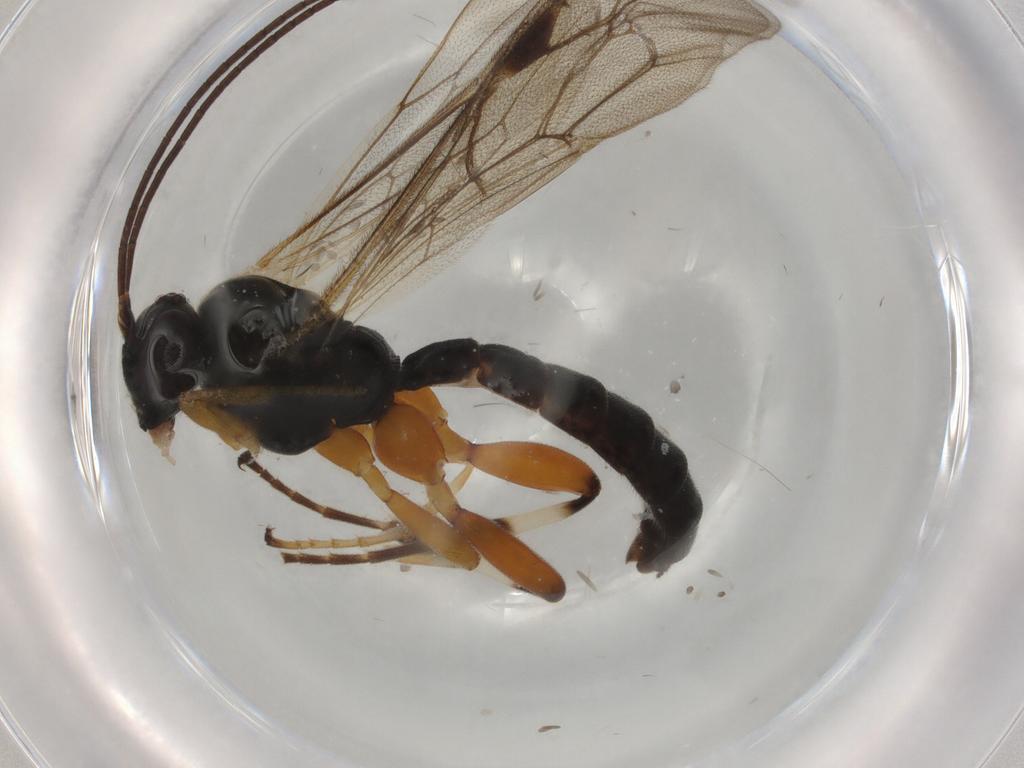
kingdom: Animalia
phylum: Arthropoda
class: Insecta
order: Hymenoptera
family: Ichneumonidae
